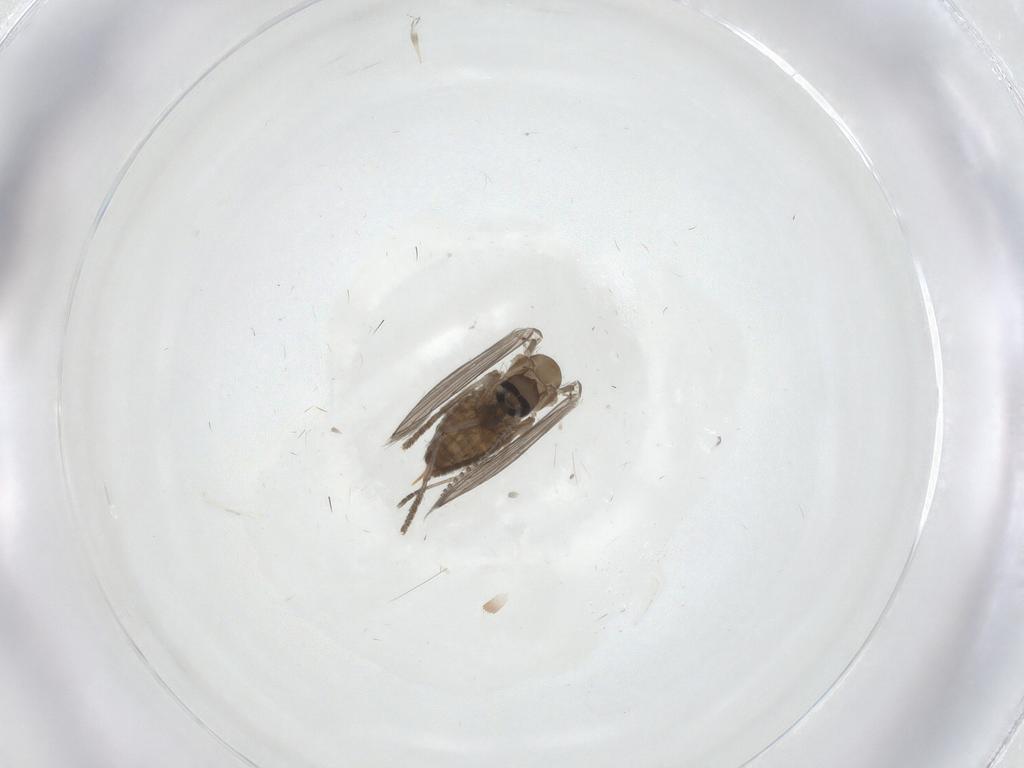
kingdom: Animalia
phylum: Arthropoda
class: Insecta
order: Diptera
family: Psychodidae
